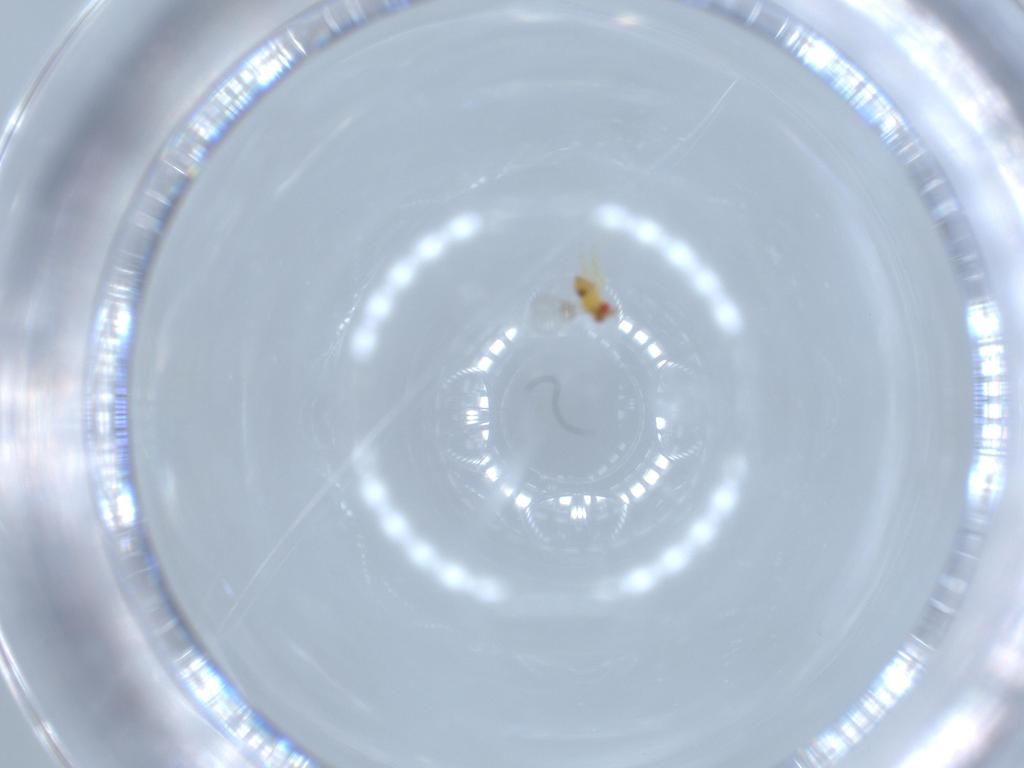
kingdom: Animalia
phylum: Arthropoda
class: Insecta
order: Hymenoptera
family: Trichogrammatidae
